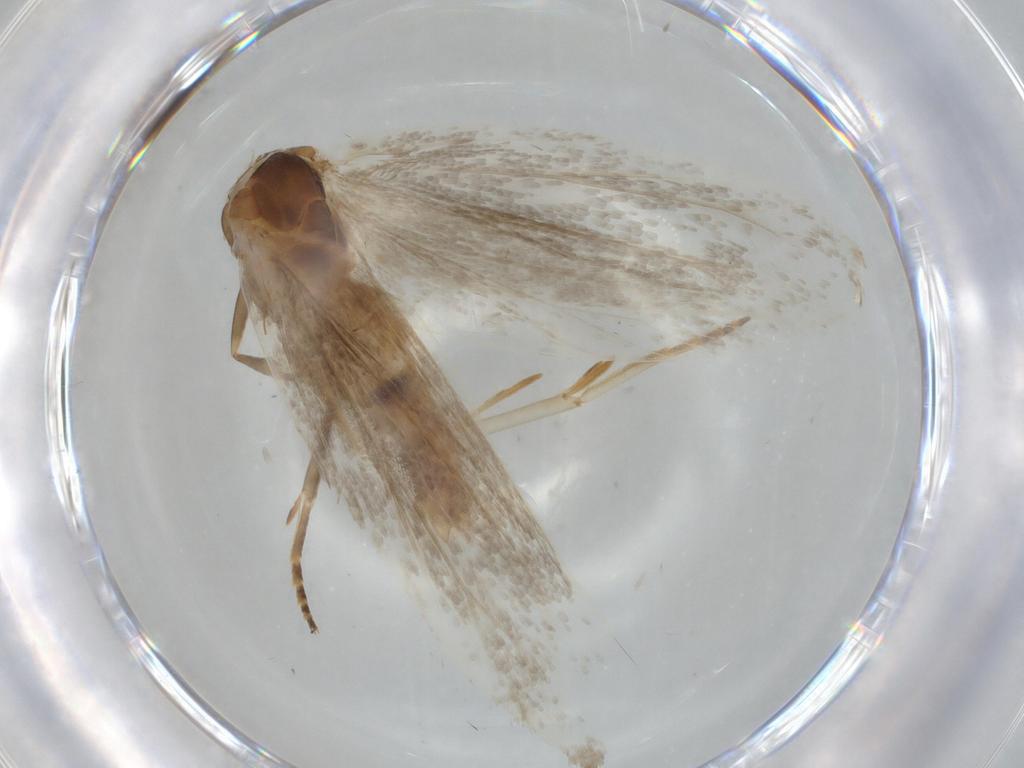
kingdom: Animalia
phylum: Arthropoda
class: Insecta
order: Lepidoptera
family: Oecophoridae
